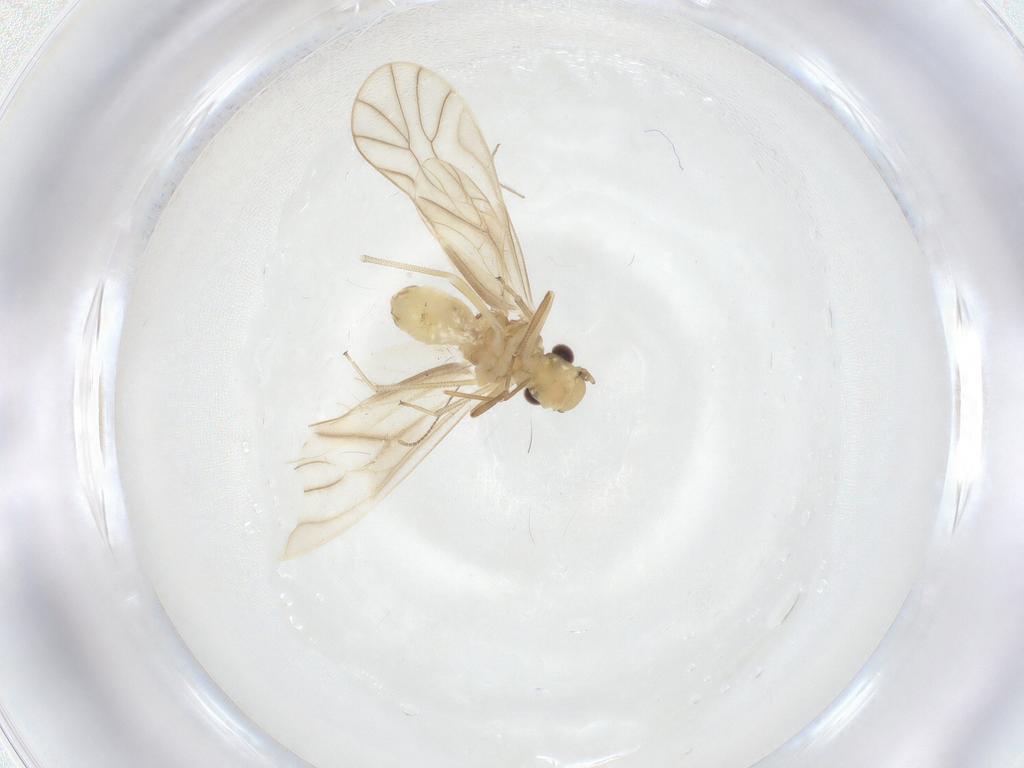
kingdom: Animalia
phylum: Arthropoda
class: Insecta
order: Psocodea
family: Caeciliusidae
